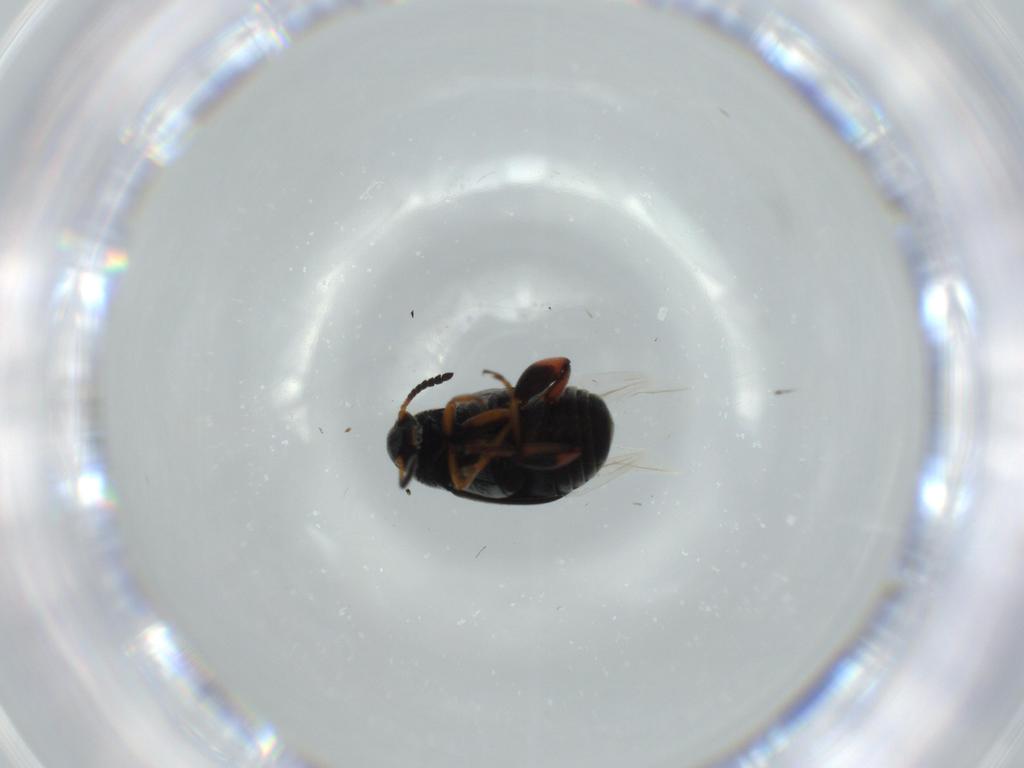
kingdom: Animalia
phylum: Arthropoda
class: Insecta
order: Coleoptera
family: Chrysomelidae
